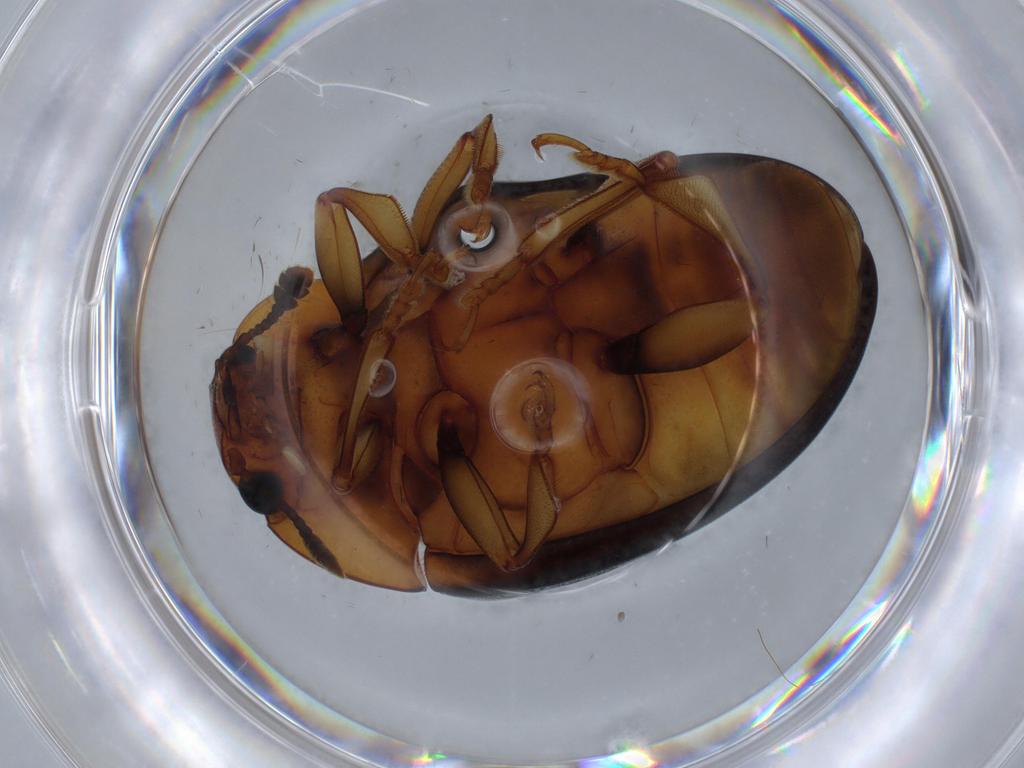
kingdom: Animalia
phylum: Arthropoda
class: Insecta
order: Coleoptera
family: Erotylidae
